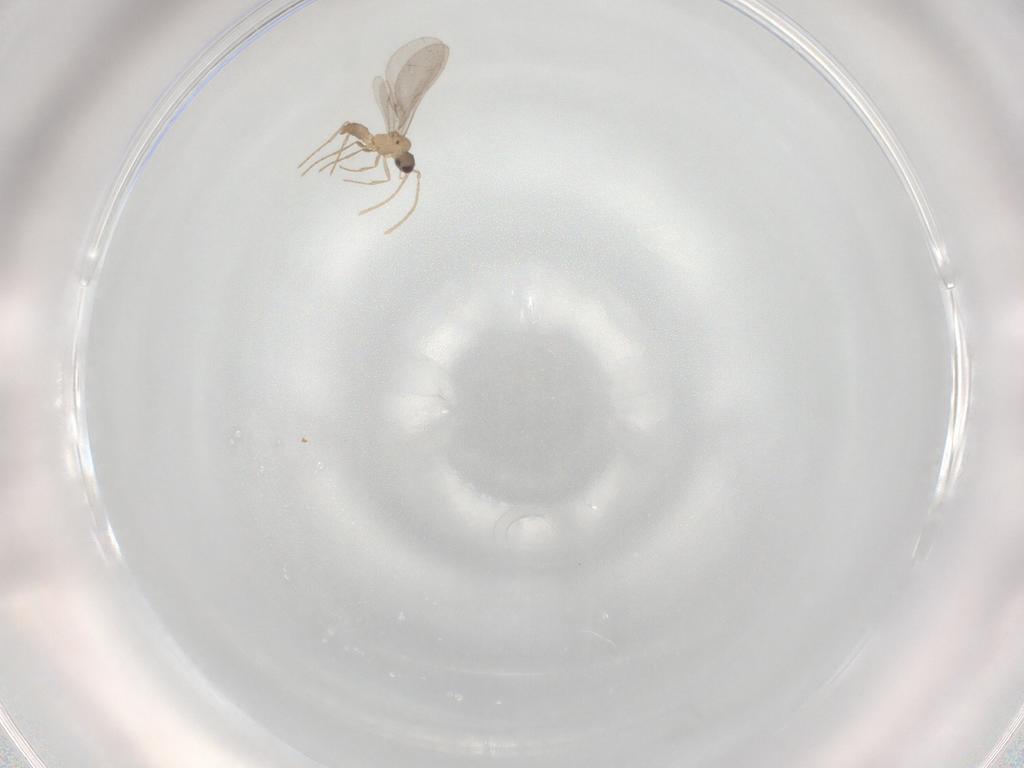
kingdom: Animalia
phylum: Arthropoda
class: Insecta
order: Hymenoptera
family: Formicidae
